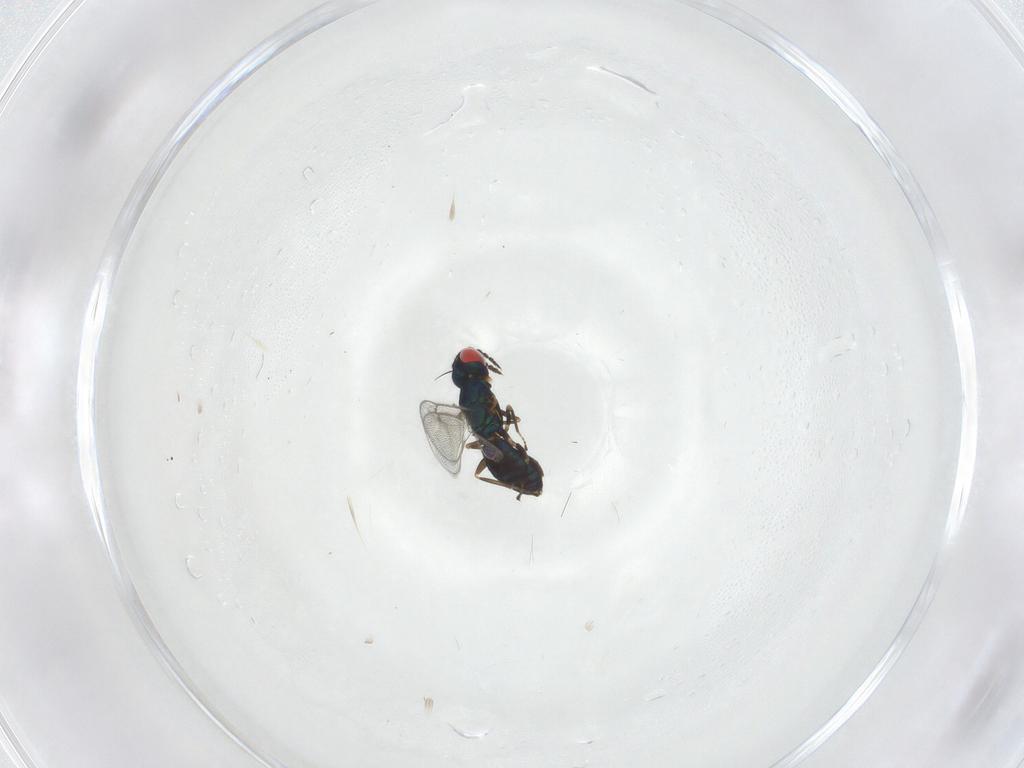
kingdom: Animalia
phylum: Arthropoda
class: Insecta
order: Hymenoptera
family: Eulophidae
